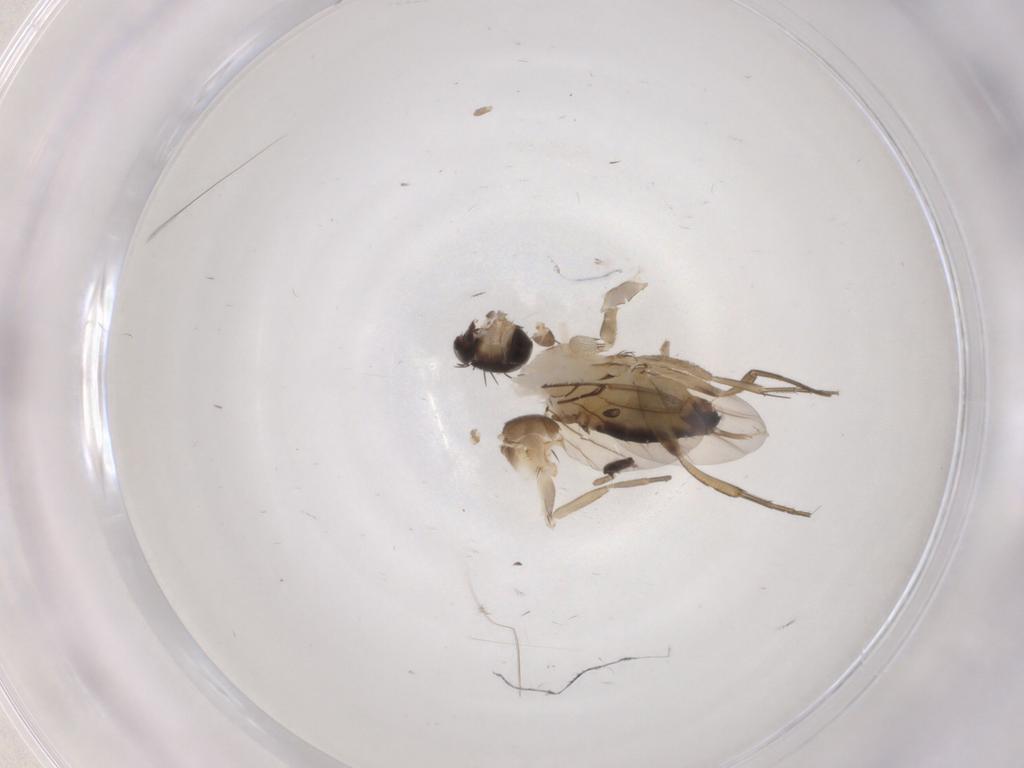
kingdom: Animalia
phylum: Arthropoda
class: Insecta
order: Diptera
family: Psychodidae
